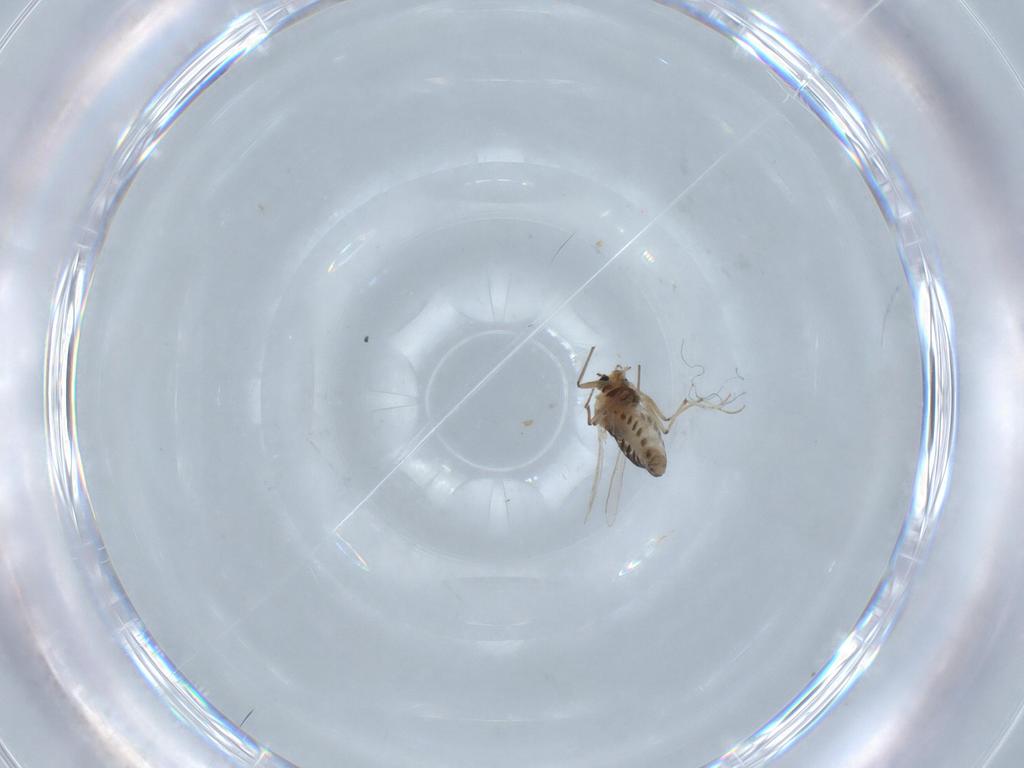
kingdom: Animalia
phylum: Arthropoda
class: Insecta
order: Diptera
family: Chironomidae
